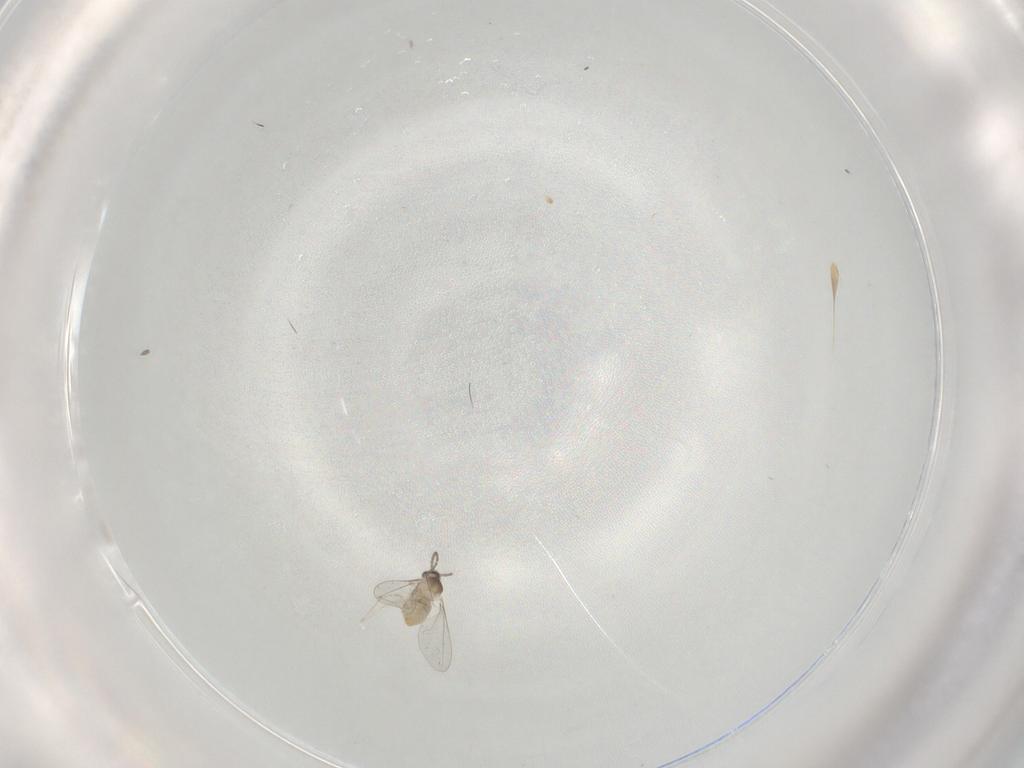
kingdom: Animalia
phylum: Arthropoda
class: Insecta
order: Diptera
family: Cecidomyiidae
